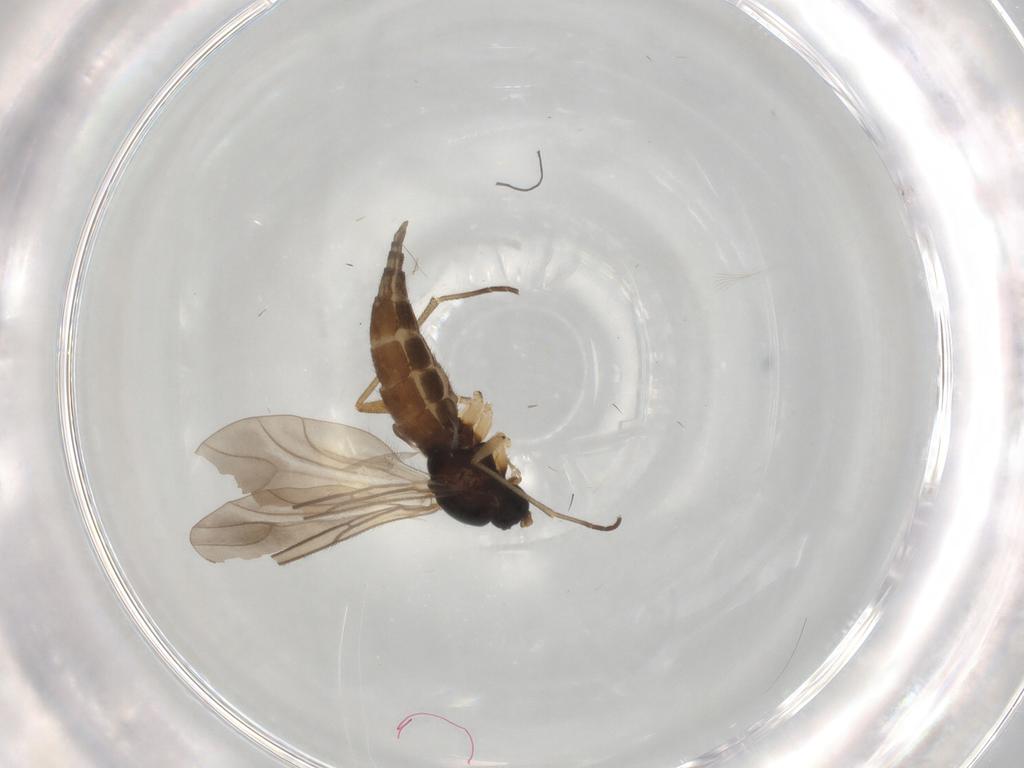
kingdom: Animalia
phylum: Arthropoda
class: Insecta
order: Diptera
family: Sciaridae
